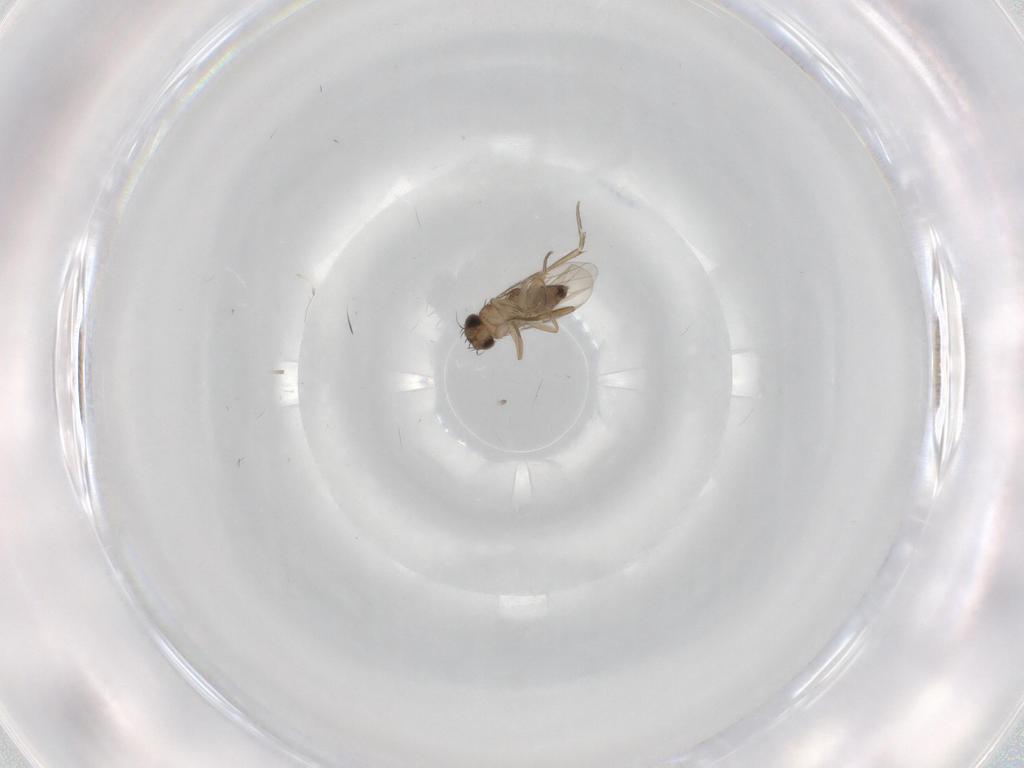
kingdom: Animalia
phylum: Arthropoda
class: Insecta
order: Diptera
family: Phoridae
